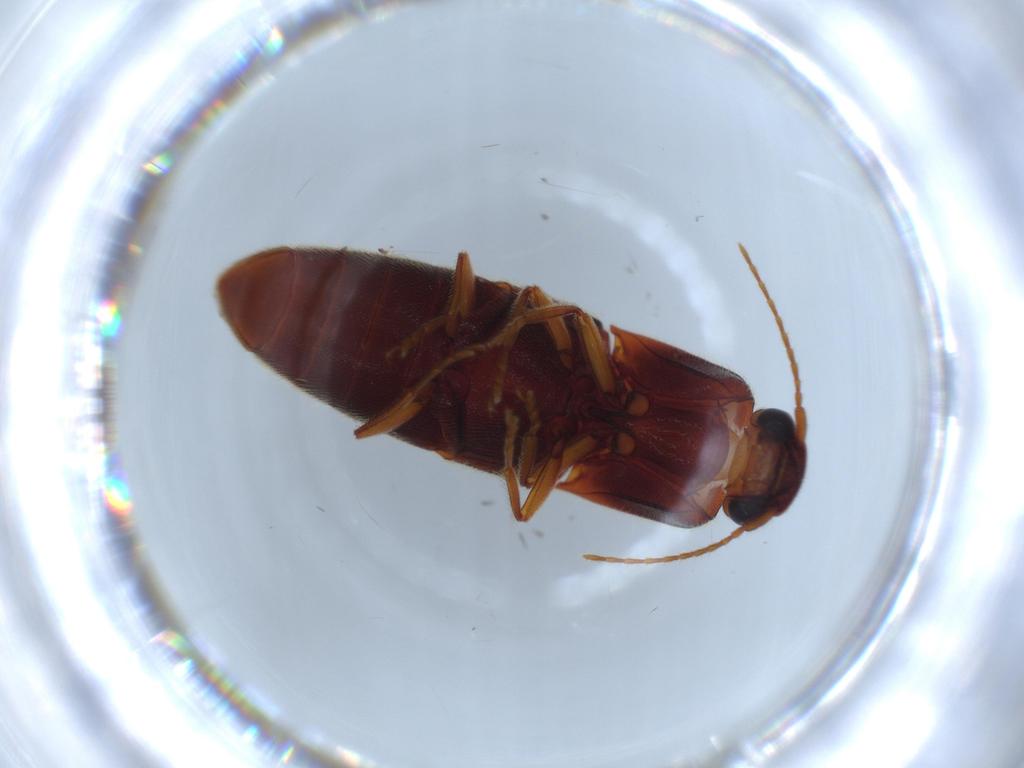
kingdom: Animalia
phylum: Arthropoda
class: Insecta
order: Coleoptera
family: Elateridae
